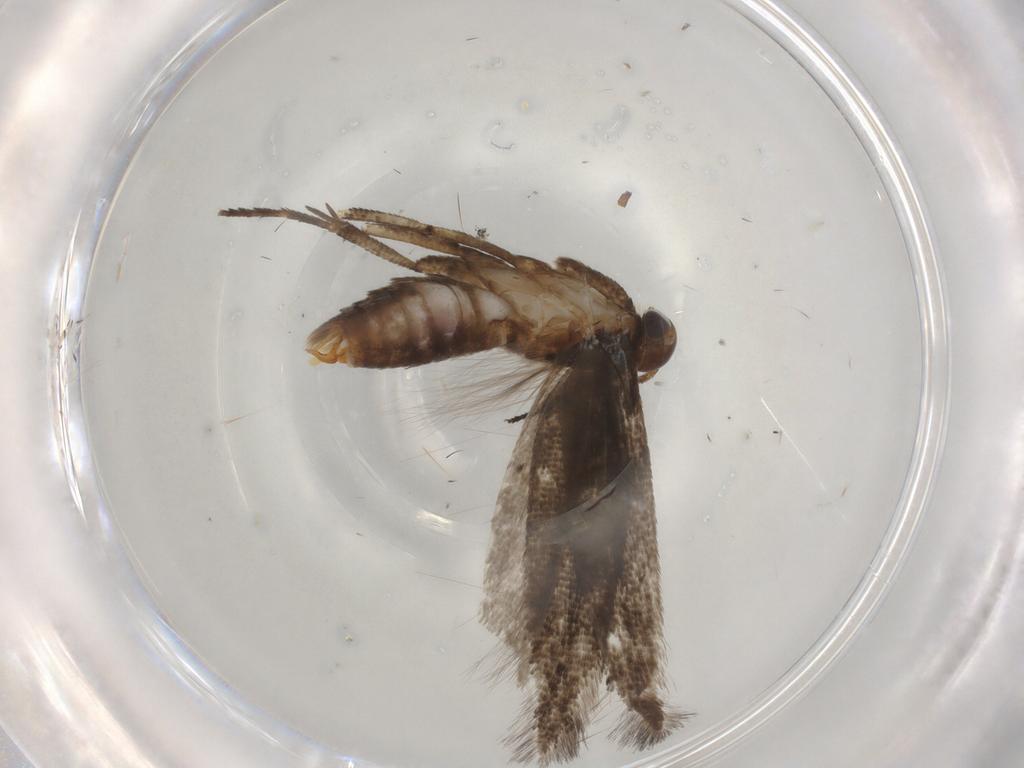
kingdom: Animalia
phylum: Arthropoda
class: Insecta
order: Lepidoptera
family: Gelechiidae
